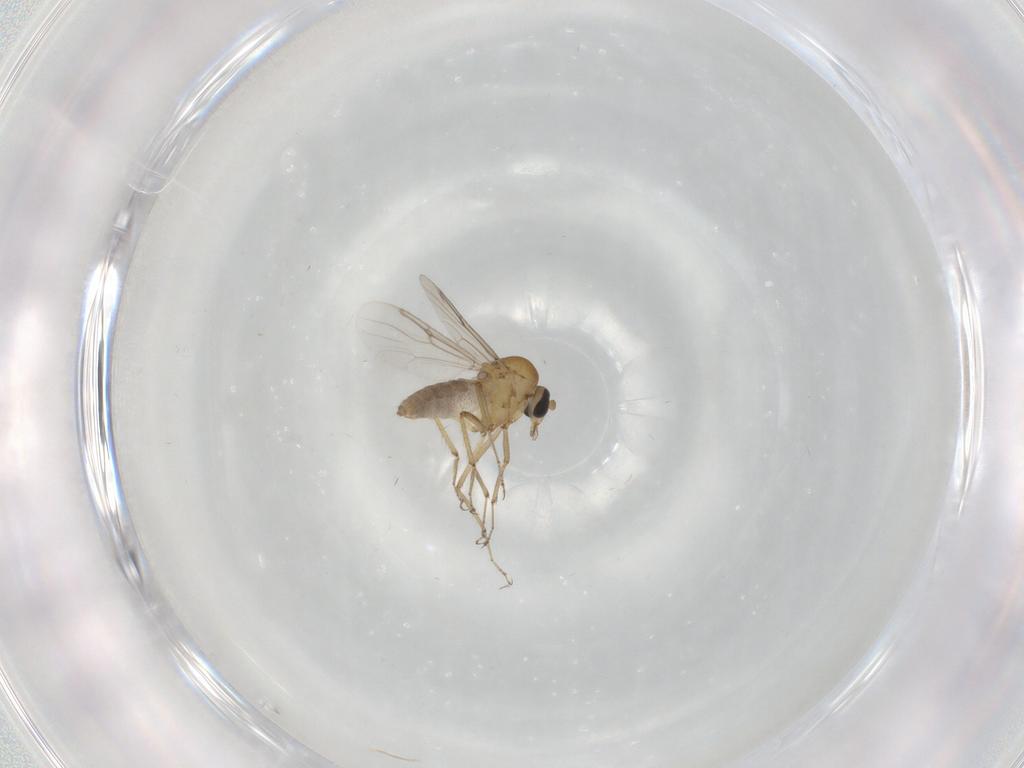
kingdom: Animalia
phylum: Arthropoda
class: Insecta
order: Diptera
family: Ceratopogonidae
